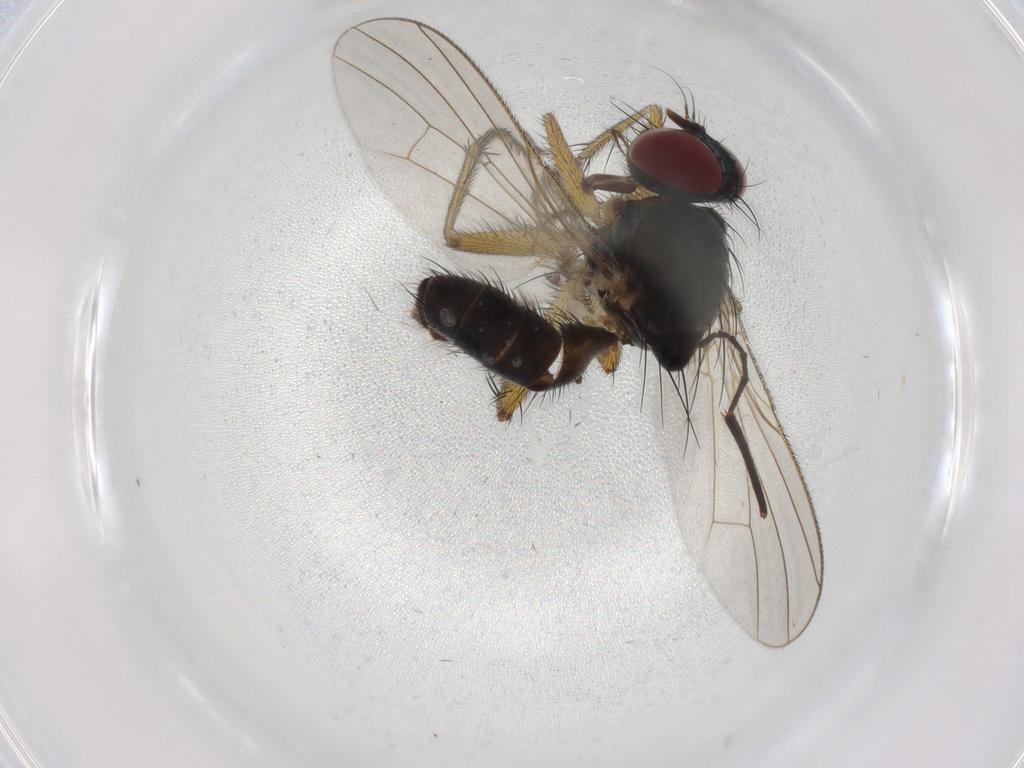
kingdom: Animalia
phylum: Arthropoda
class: Insecta
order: Diptera
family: Muscidae
